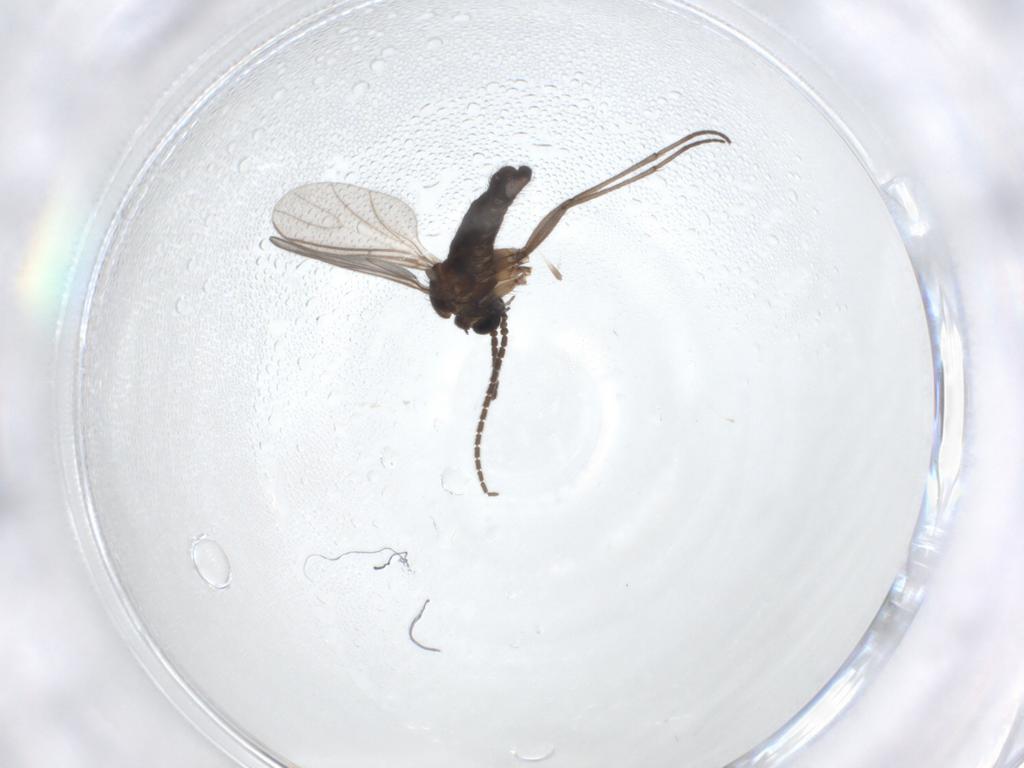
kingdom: Animalia
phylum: Arthropoda
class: Insecta
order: Diptera
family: Sciaridae
